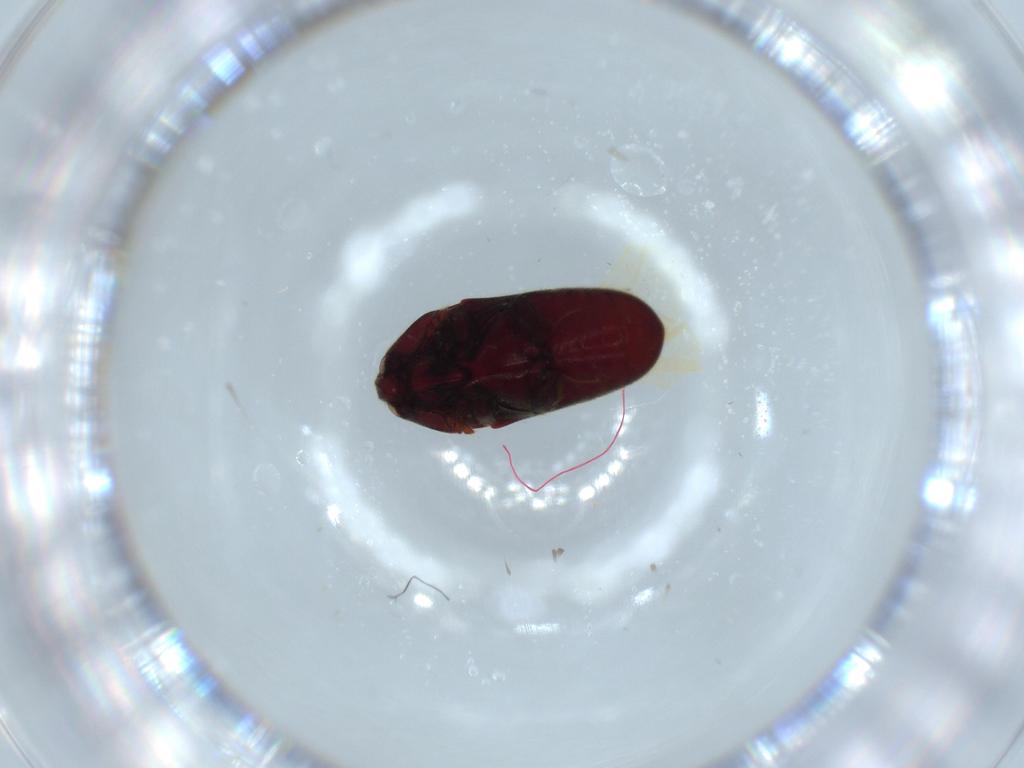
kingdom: Animalia
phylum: Arthropoda
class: Insecta
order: Coleoptera
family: Throscidae
